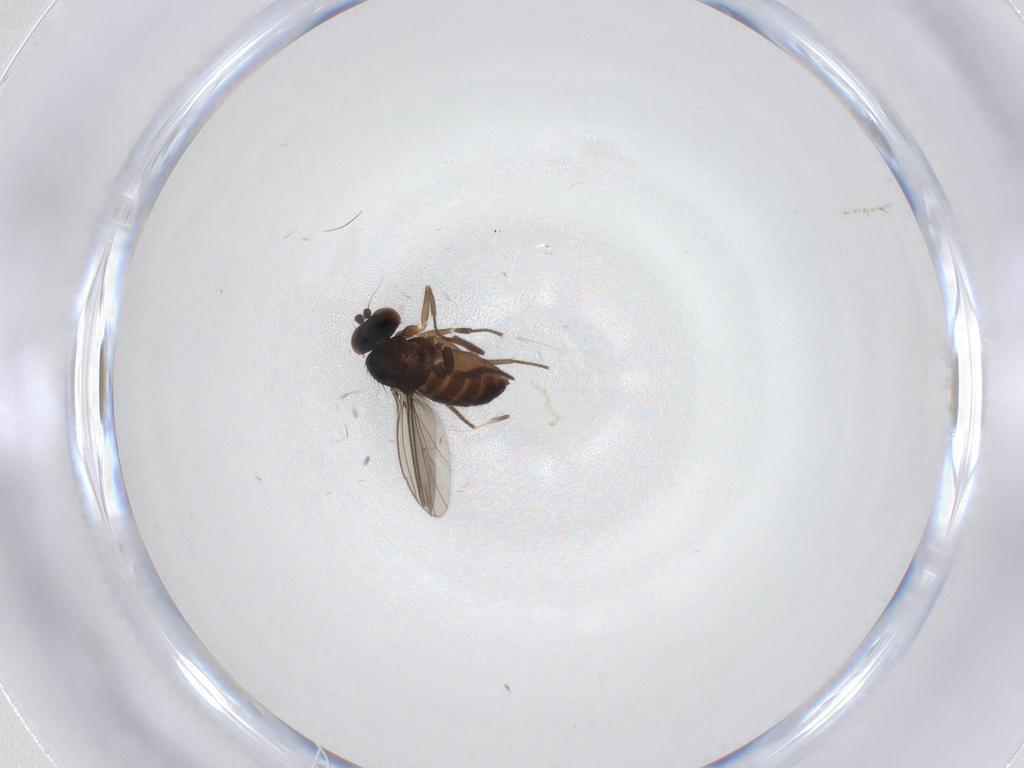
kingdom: Animalia
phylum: Arthropoda
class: Insecta
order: Diptera
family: Dolichopodidae
